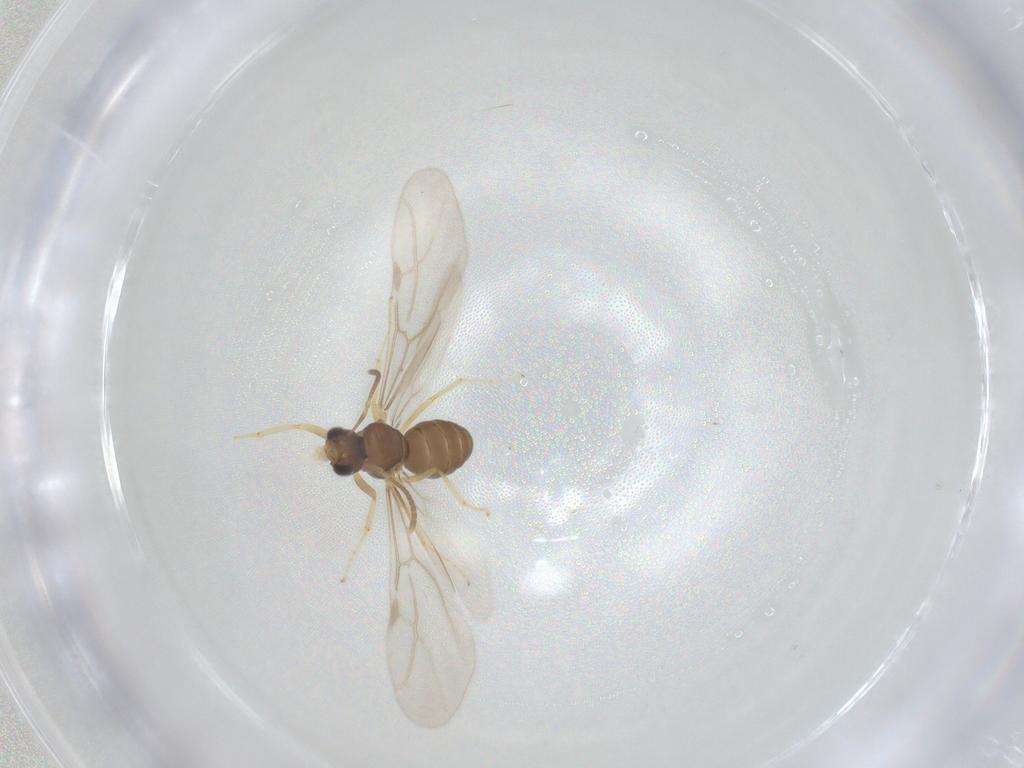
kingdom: Animalia
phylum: Arthropoda
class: Insecta
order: Hymenoptera
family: Formicidae
